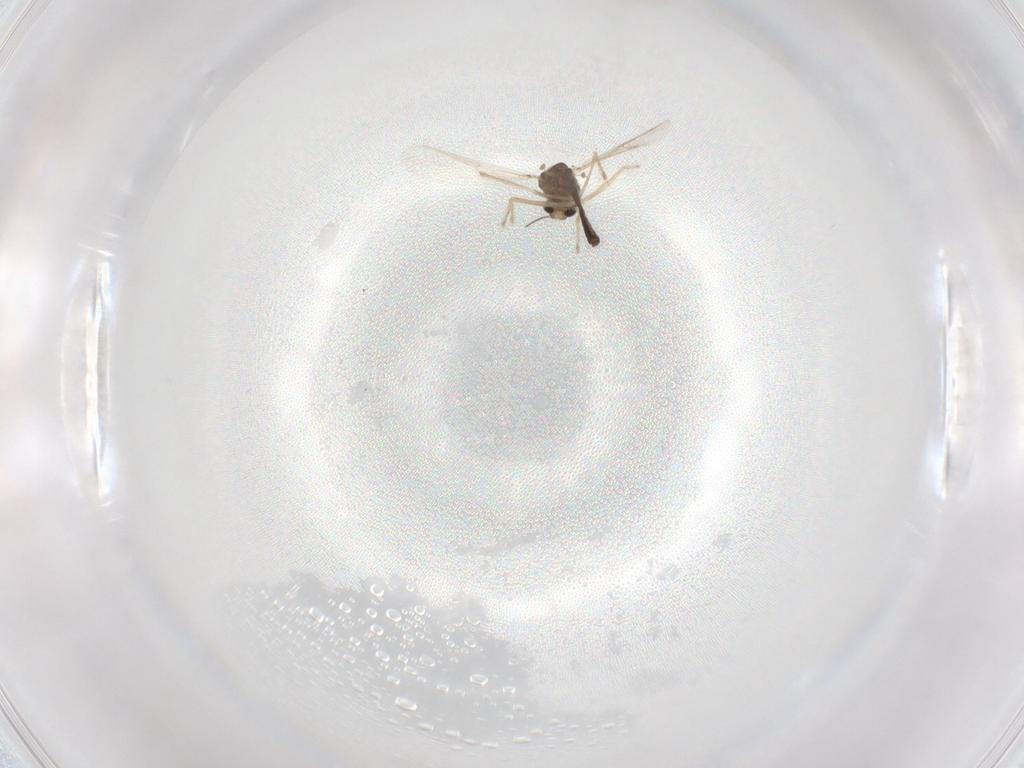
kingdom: Animalia
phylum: Arthropoda
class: Insecta
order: Diptera
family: Chironomidae
